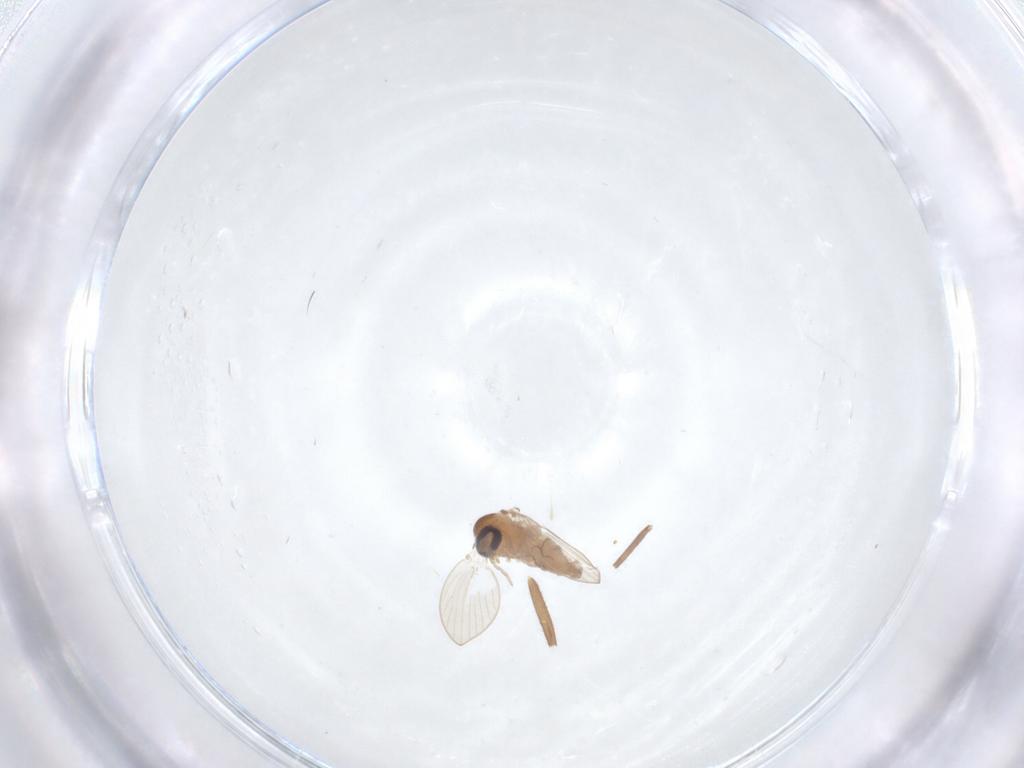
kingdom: Animalia
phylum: Arthropoda
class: Insecta
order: Diptera
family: Sciaridae
